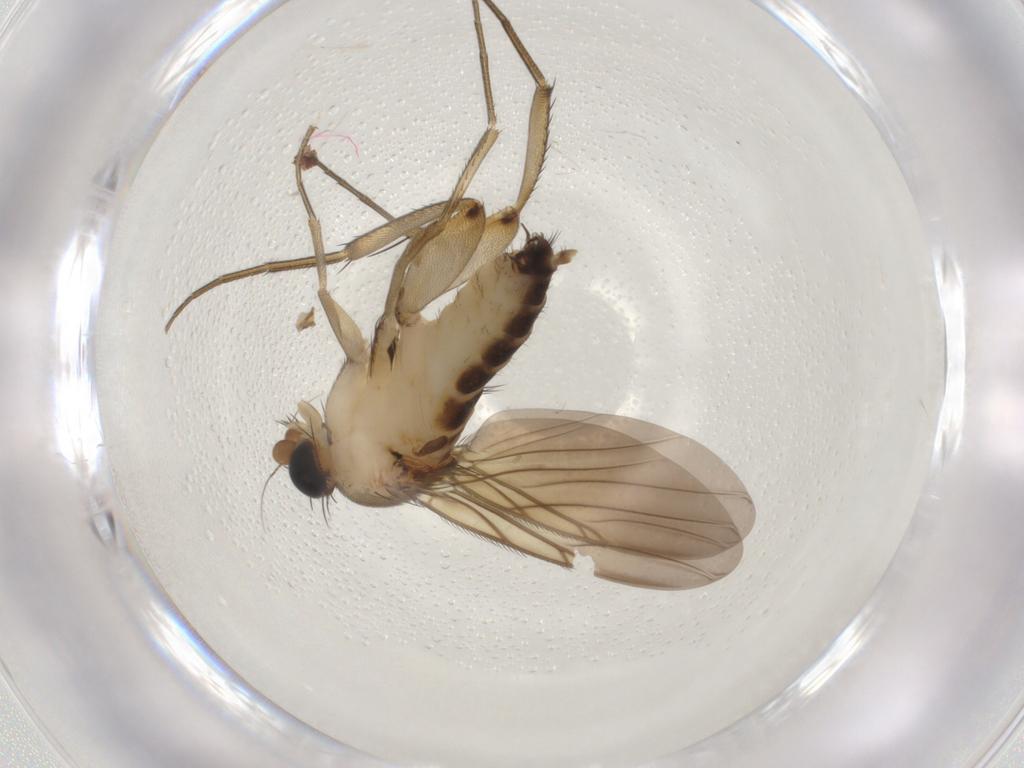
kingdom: Animalia
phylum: Arthropoda
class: Insecta
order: Diptera
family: Phoridae
